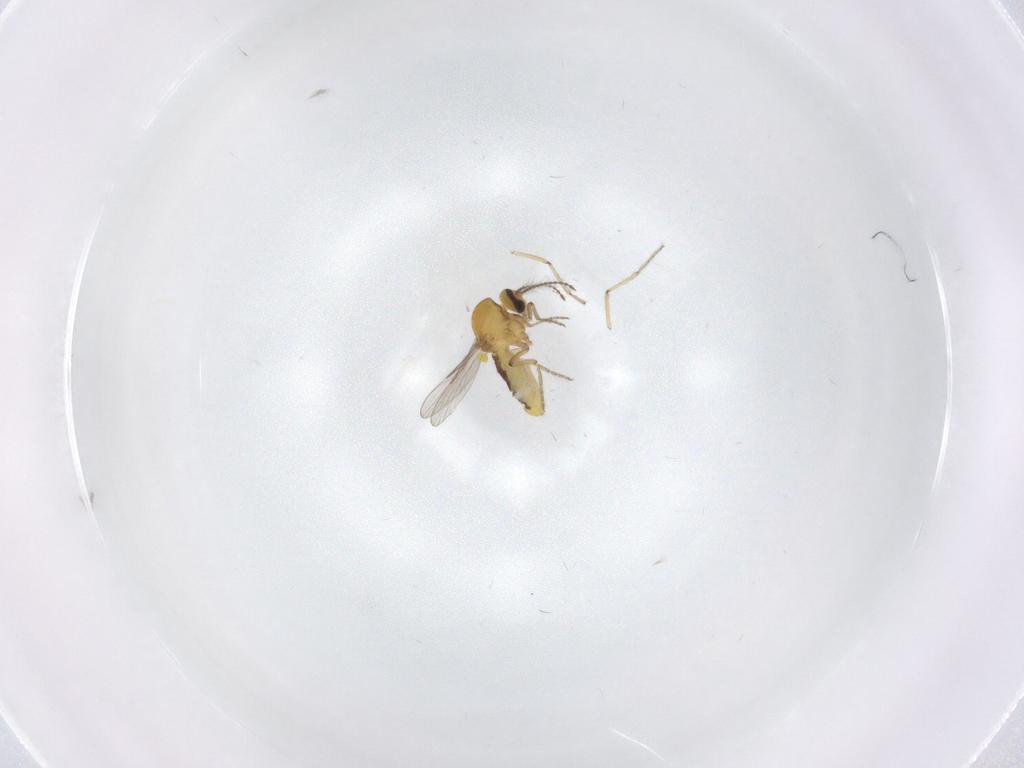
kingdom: Animalia
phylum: Arthropoda
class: Insecta
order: Diptera
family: Ceratopogonidae
